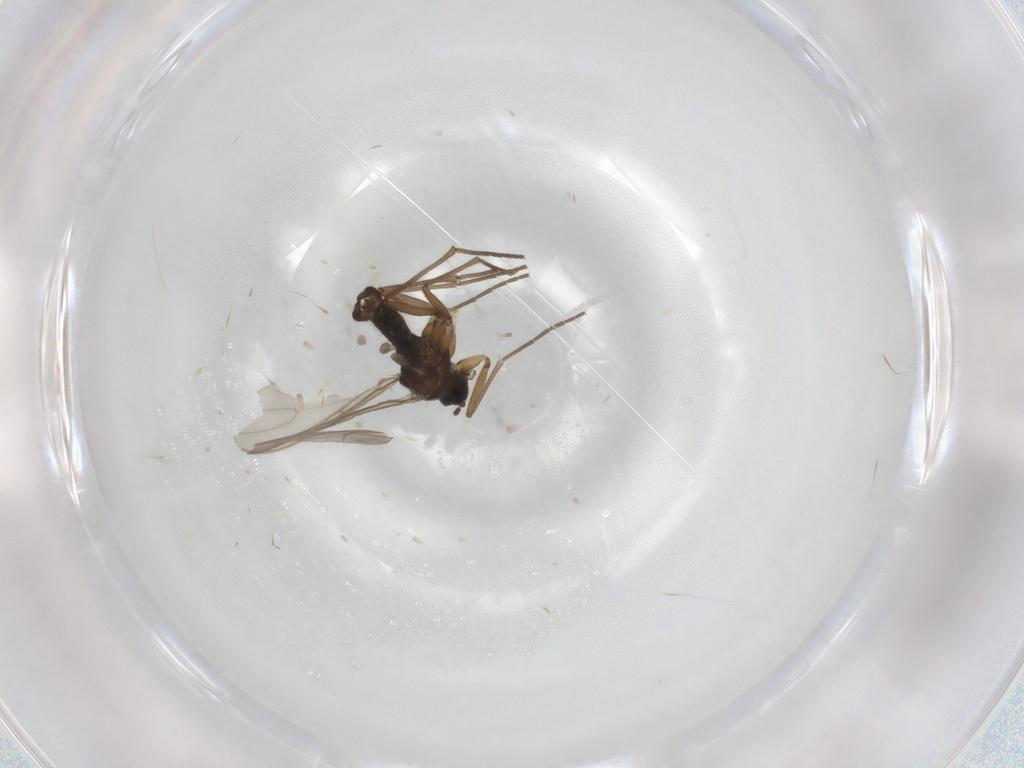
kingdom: Animalia
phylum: Arthropoda
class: Insecta
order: Diptera
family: Sciaridae
